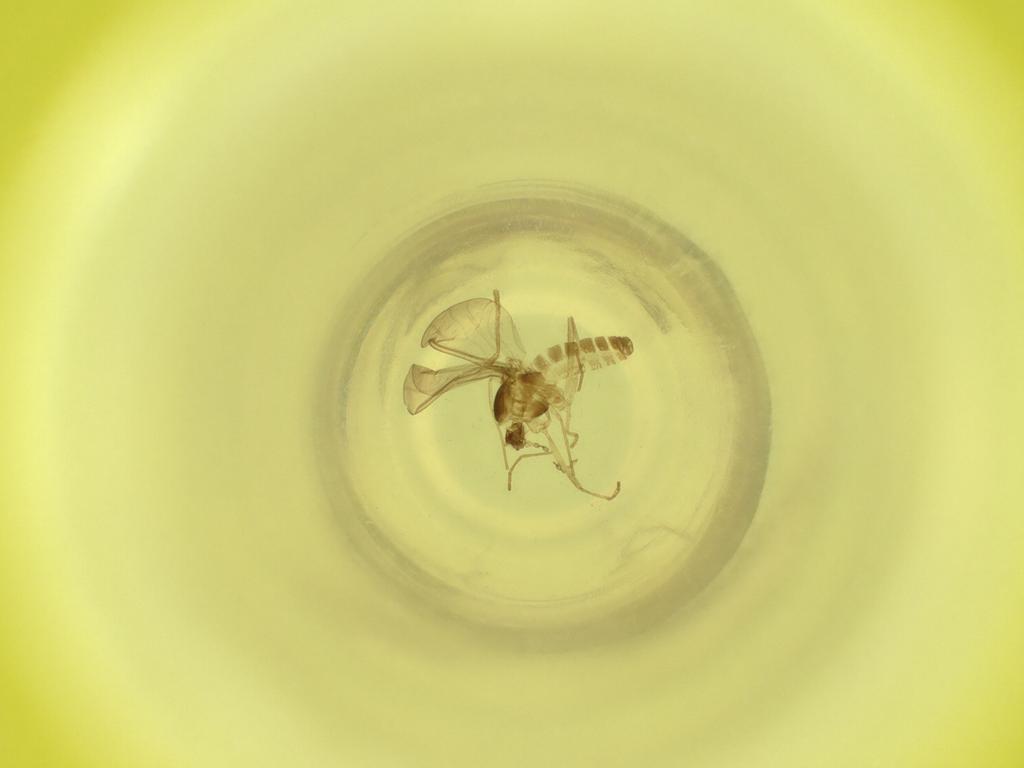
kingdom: Animalia
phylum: Arthropoda
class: Insecta
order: Diptera
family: Cecidomyiidae
